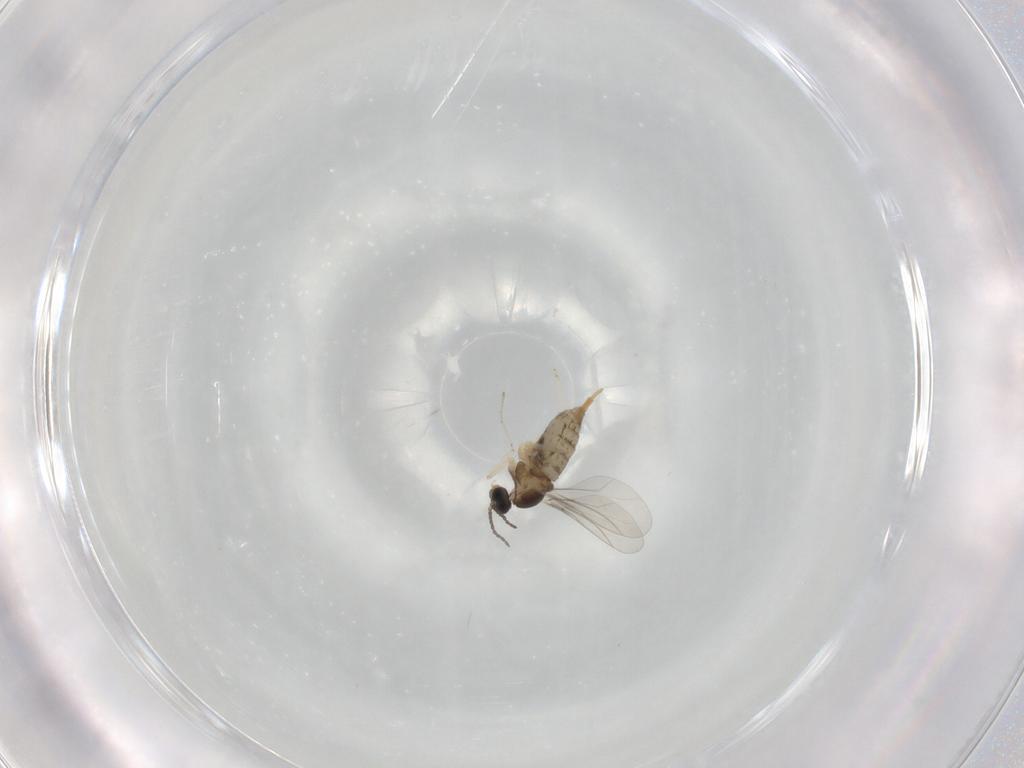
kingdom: Animalia
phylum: Arthropoda
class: Insecta
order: Diptera
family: Cecidomyiidae
